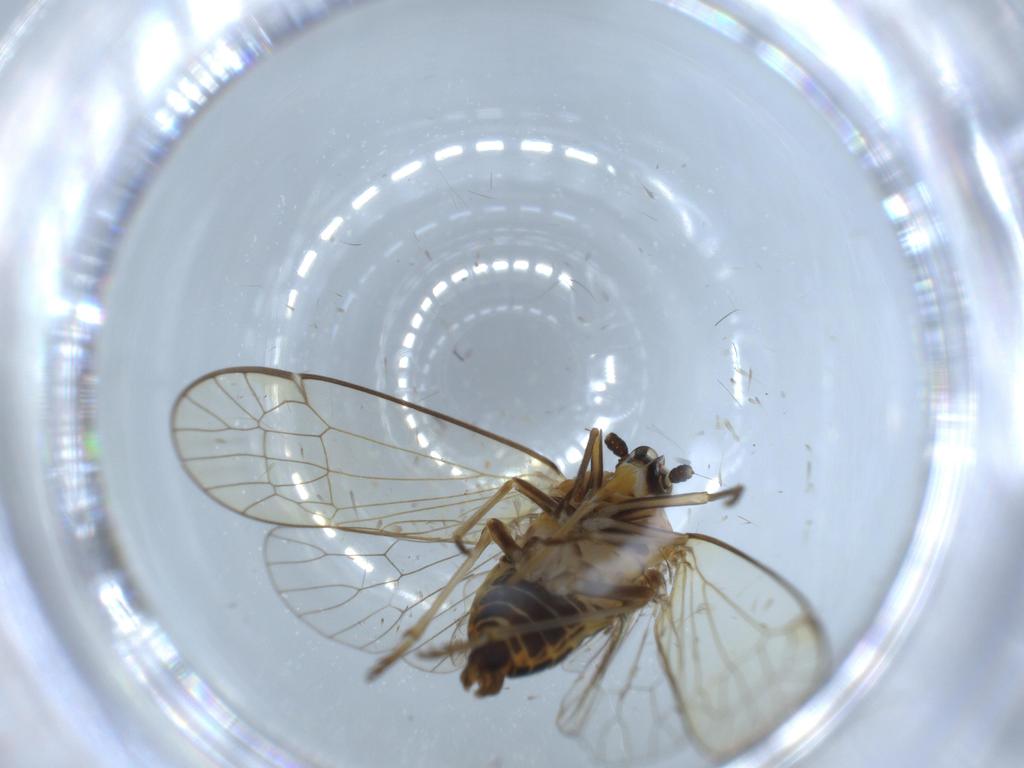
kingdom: Animalia
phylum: Arthropoda
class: Insecta
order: Hemiptera
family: Kinnaridae
